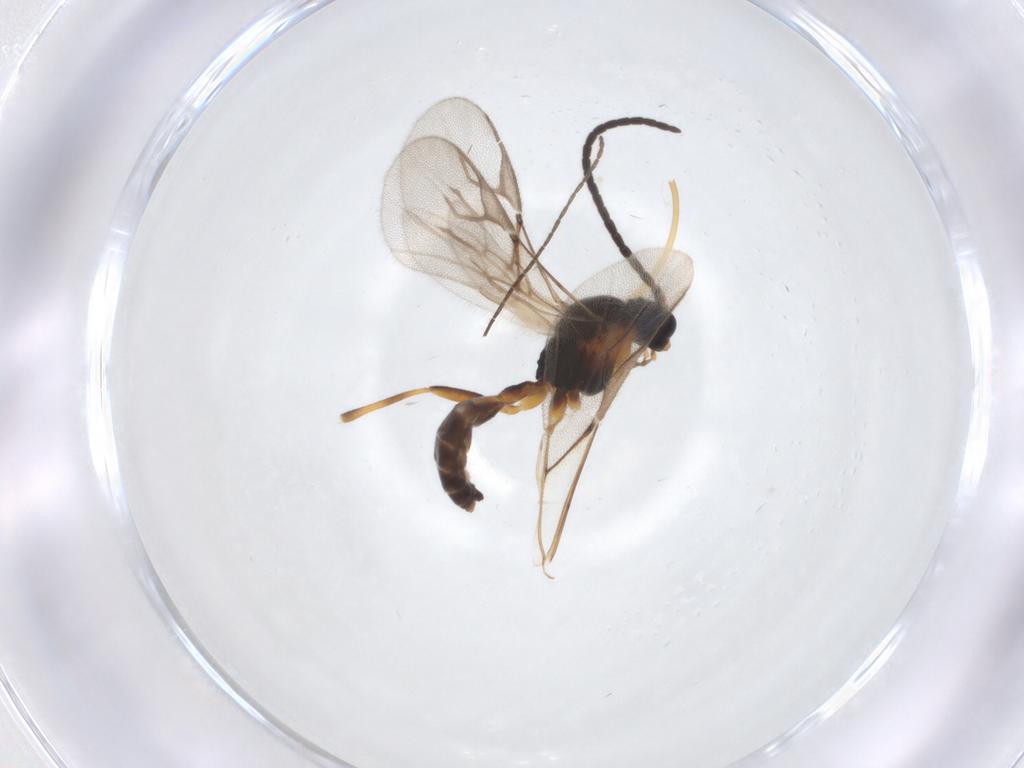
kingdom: Animalia
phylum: Arthropoda
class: Insecta
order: Hymenoptera
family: Braconidae
